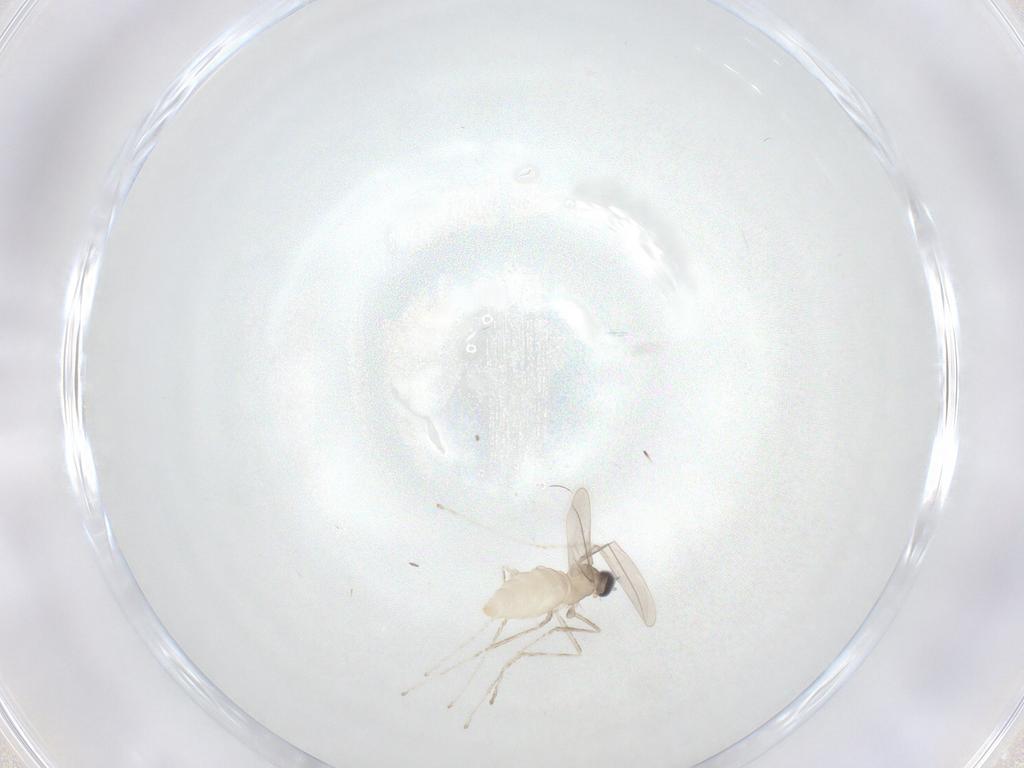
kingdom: Animalia
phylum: Arthropoda
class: Insecta
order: Diptera
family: Cecidomyiidae
